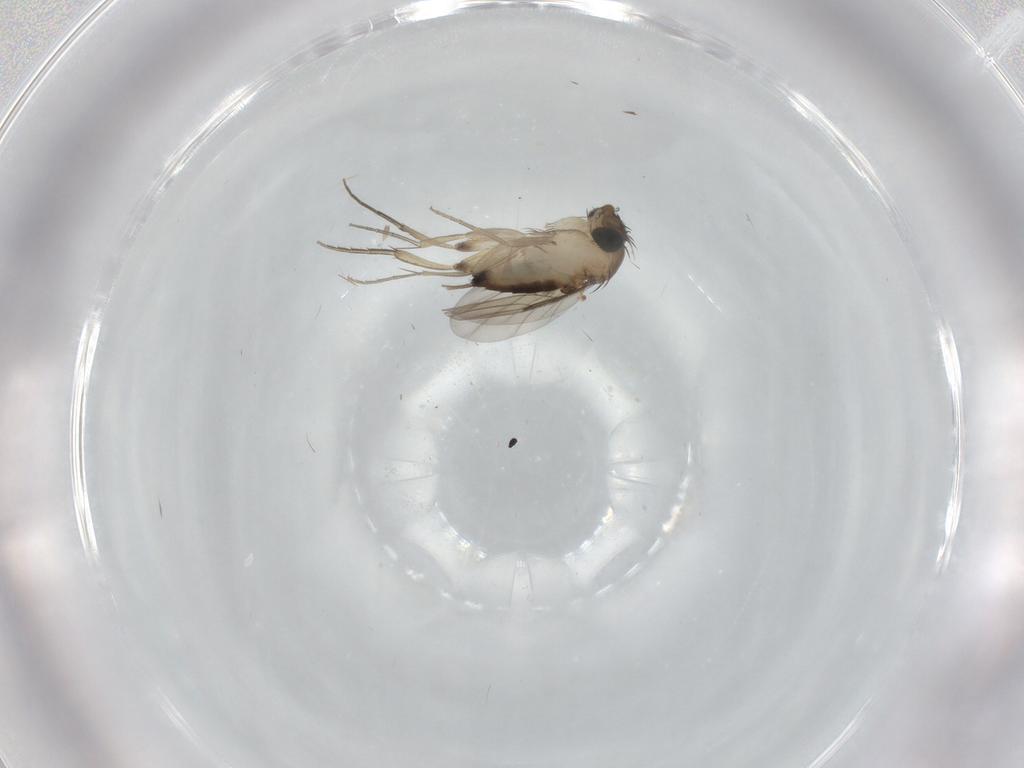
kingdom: Animalia
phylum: Arthropoda
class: Insecta
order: Diptera
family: Phoridae
